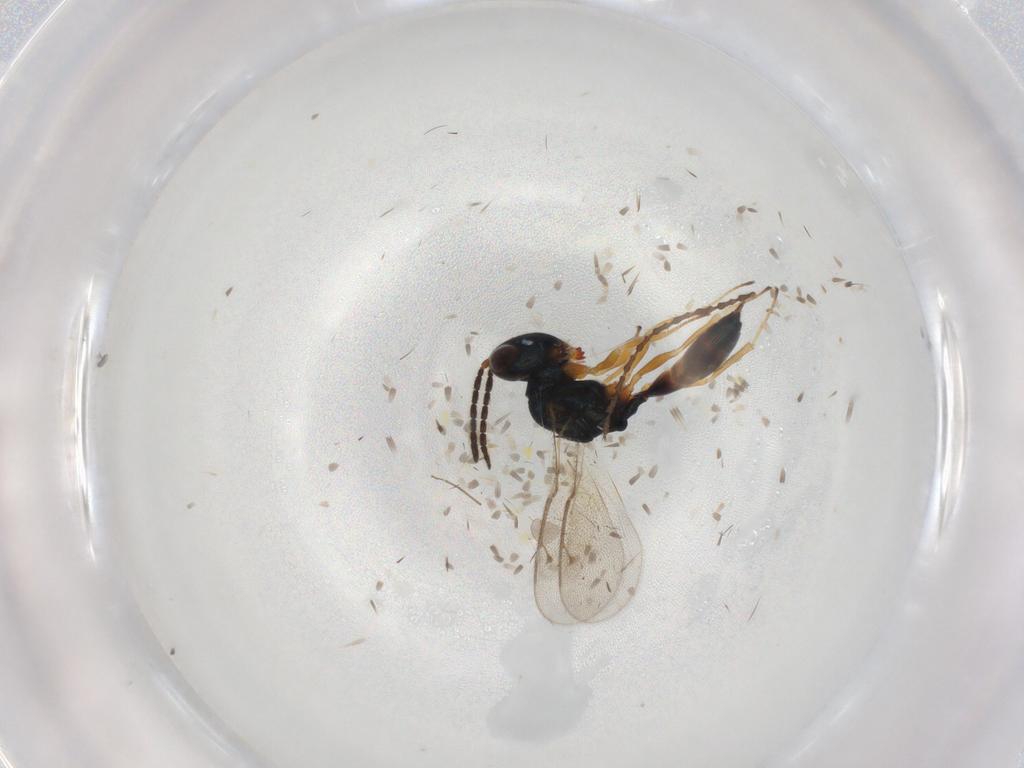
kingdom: Animalia
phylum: Arthropoda
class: Insecta
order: Hymenoptera
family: Pteromalidae
